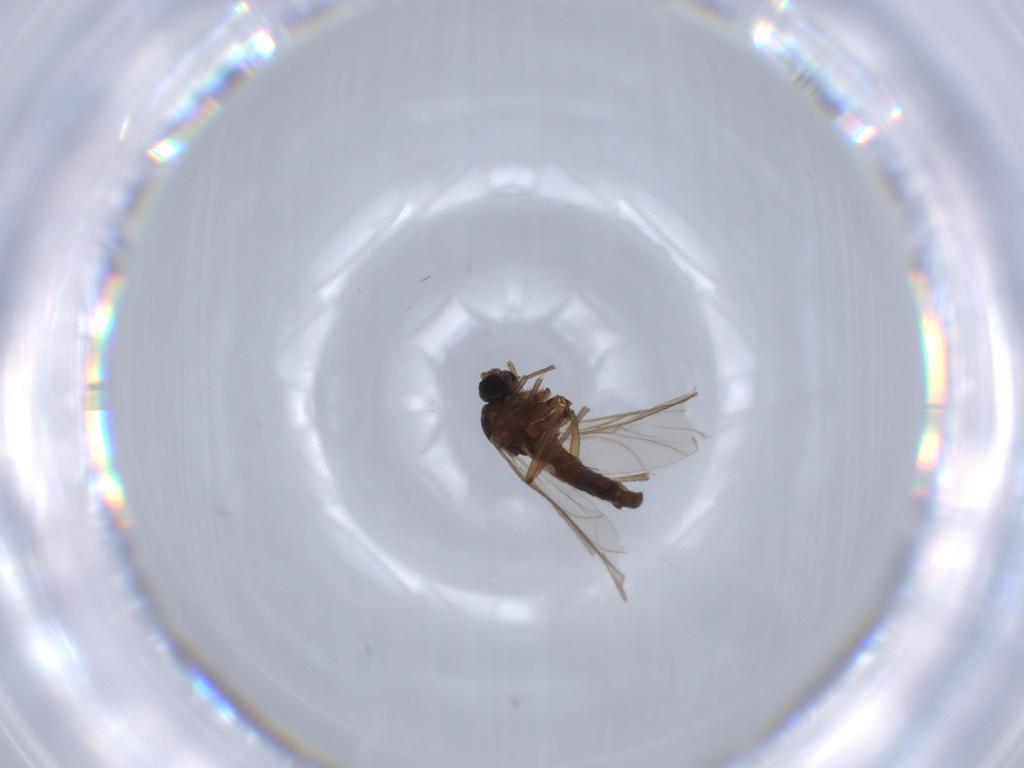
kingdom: Animalia
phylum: Arthropoda
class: Insecta
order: Diptera
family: Sciaridae
